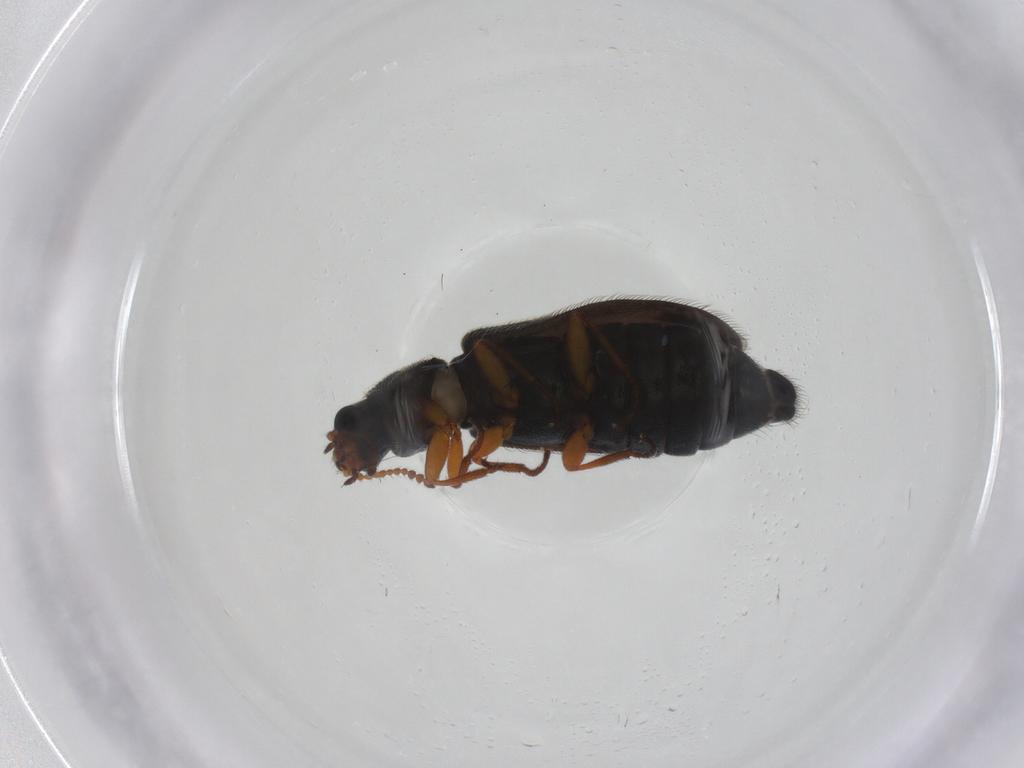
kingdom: Animalia
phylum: Arthropoda
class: Insecta
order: Coleoptera
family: Melyridae
